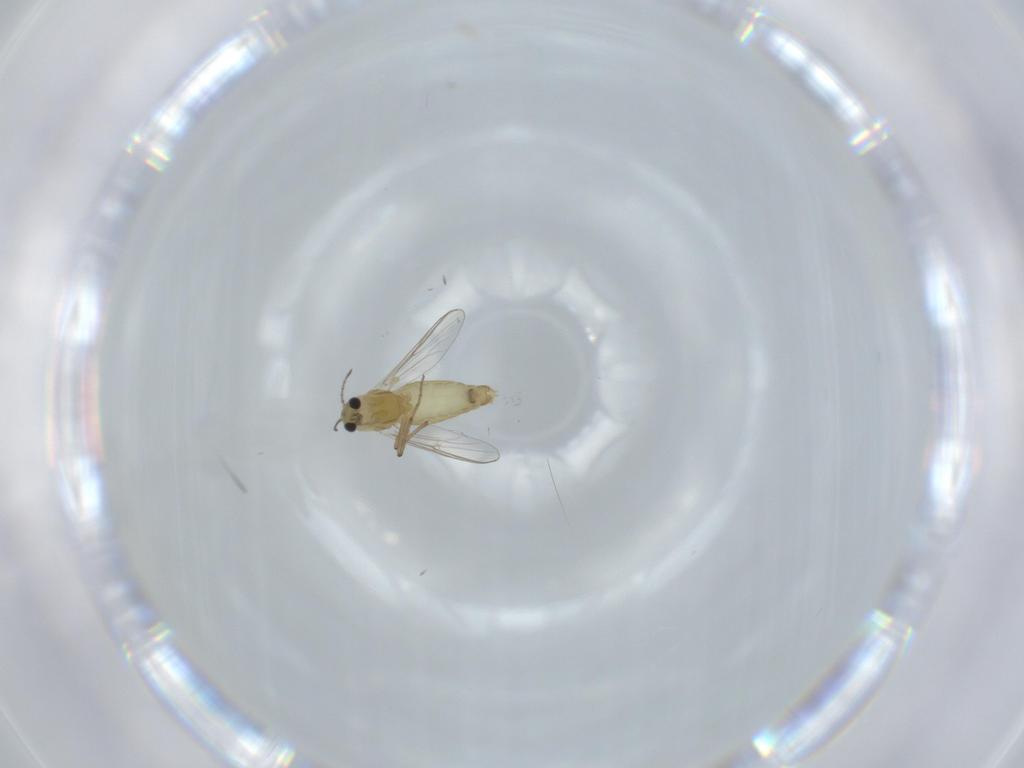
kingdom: Animalia
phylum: Arthropoda
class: Insecta
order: Diptera
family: Chironomidae
